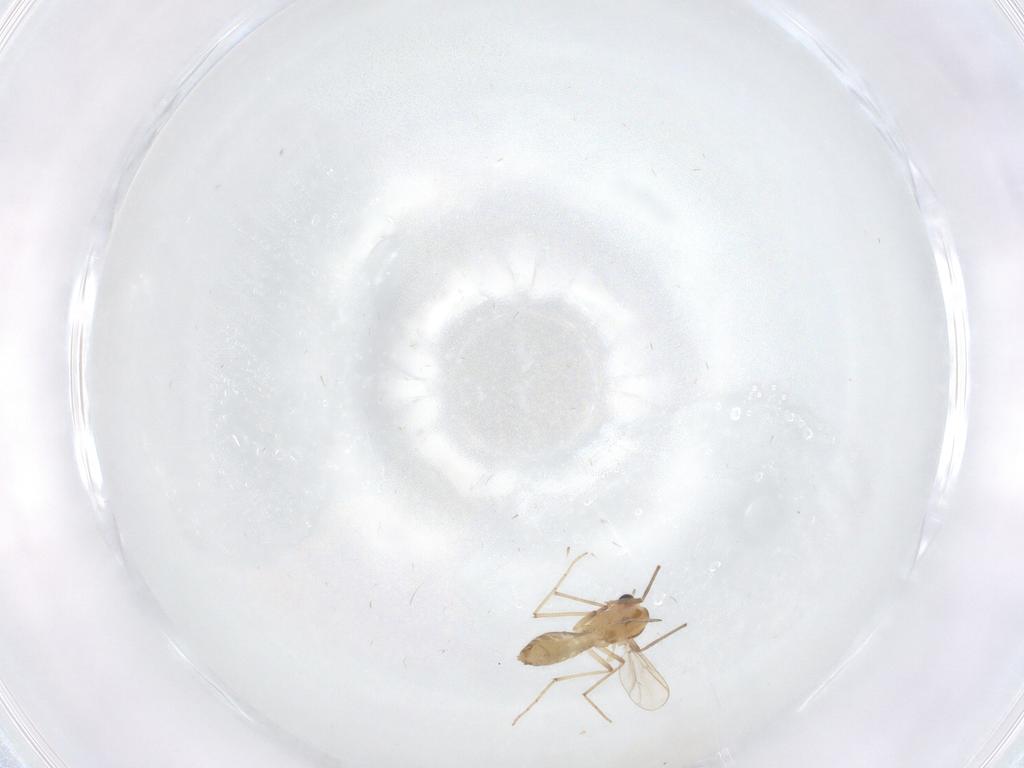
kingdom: Animalia
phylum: Arthropoda
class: Insecta
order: Diptera
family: Chironomidae
